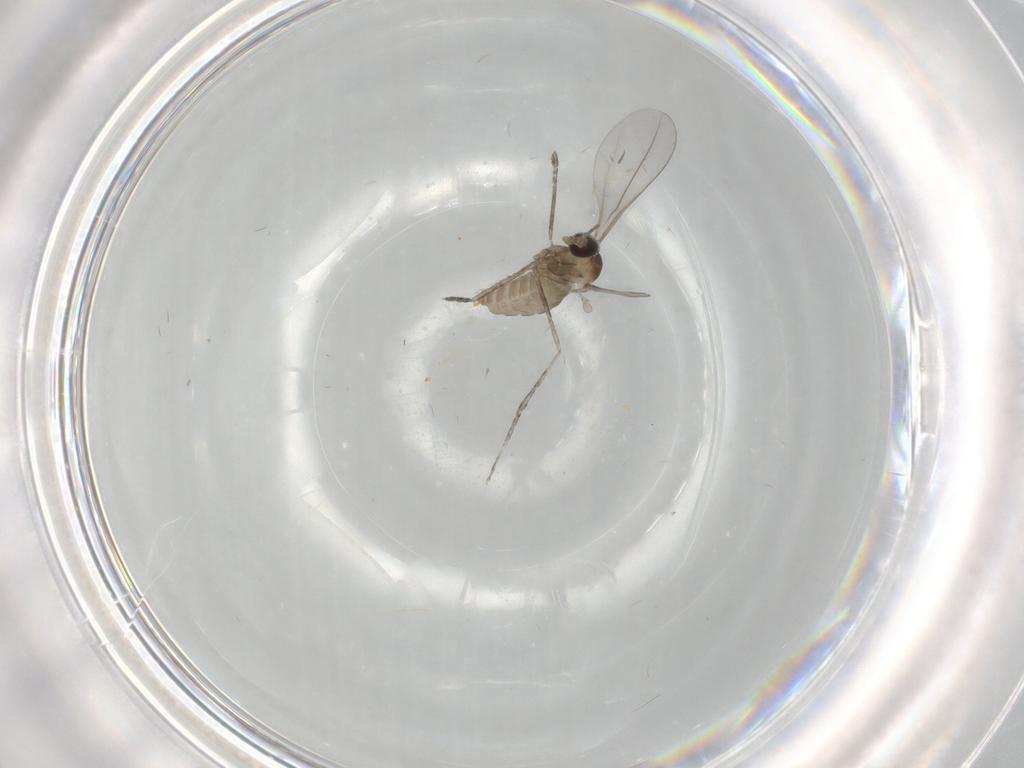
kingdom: Animalia
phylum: Arthropoda
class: Insecta
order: Diptera
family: Cecidomyiidae
